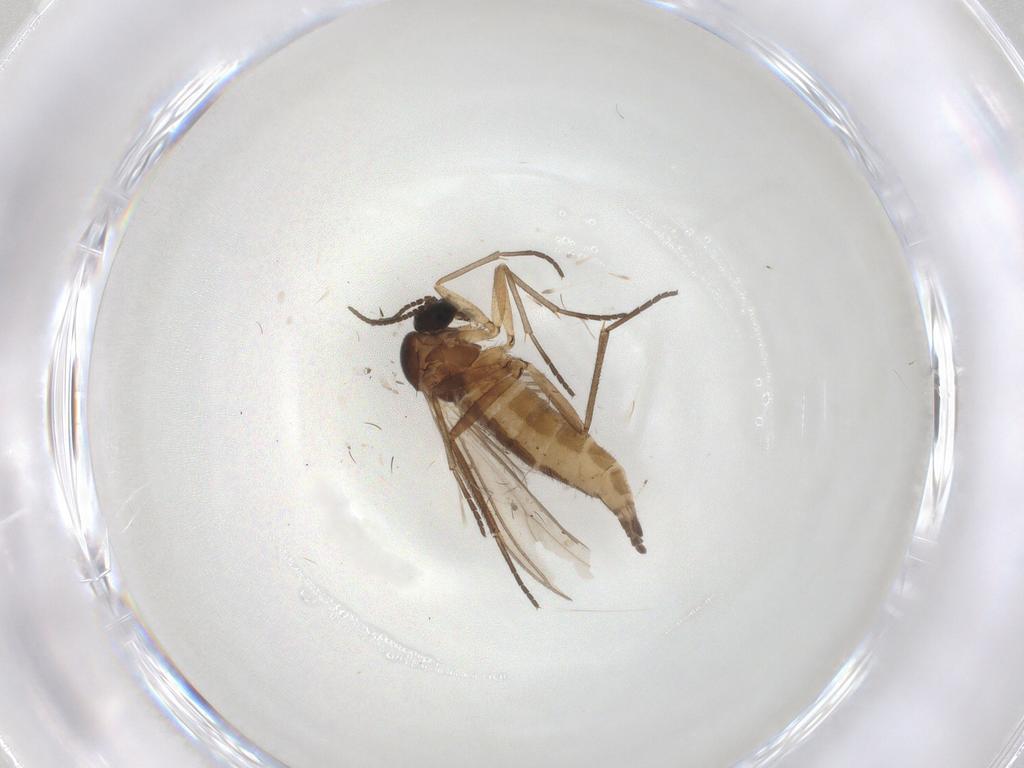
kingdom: Animalia
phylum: Arthropoda
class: Insecta
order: Diptera
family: Sciaridae
